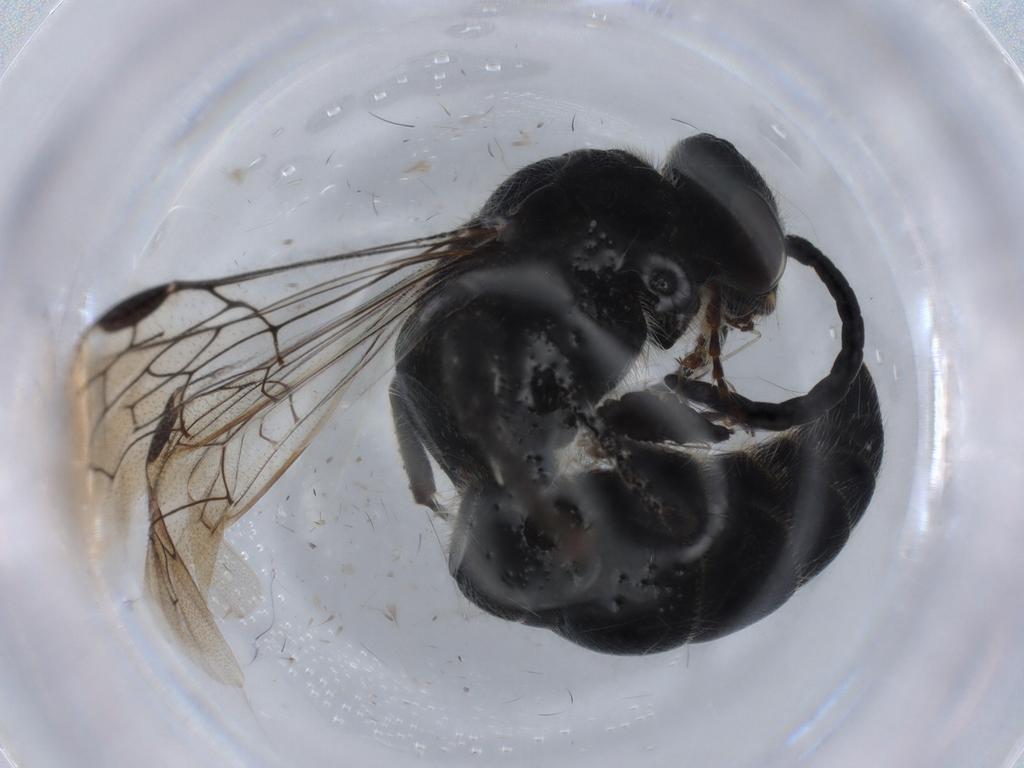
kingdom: Animalia
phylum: Arthropoda
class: Insecta
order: Hymenoptera
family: Tiphiidae
